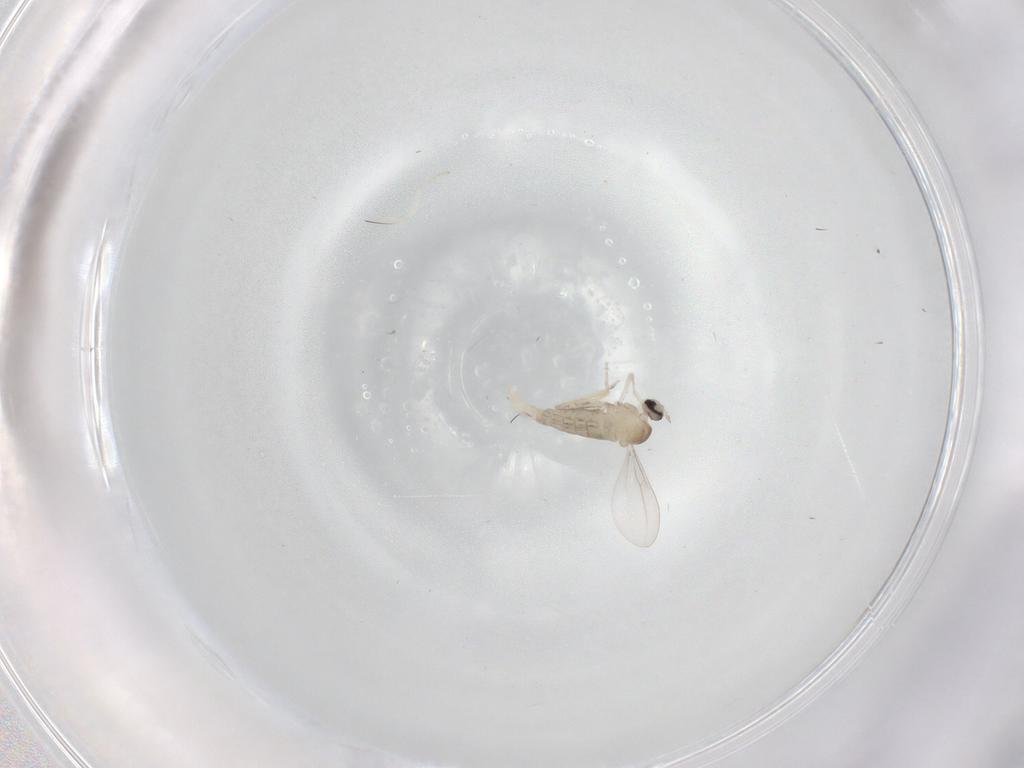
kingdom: Animalia
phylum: Arthropoda
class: Insecta
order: Diptera
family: Cecidomyiidae
